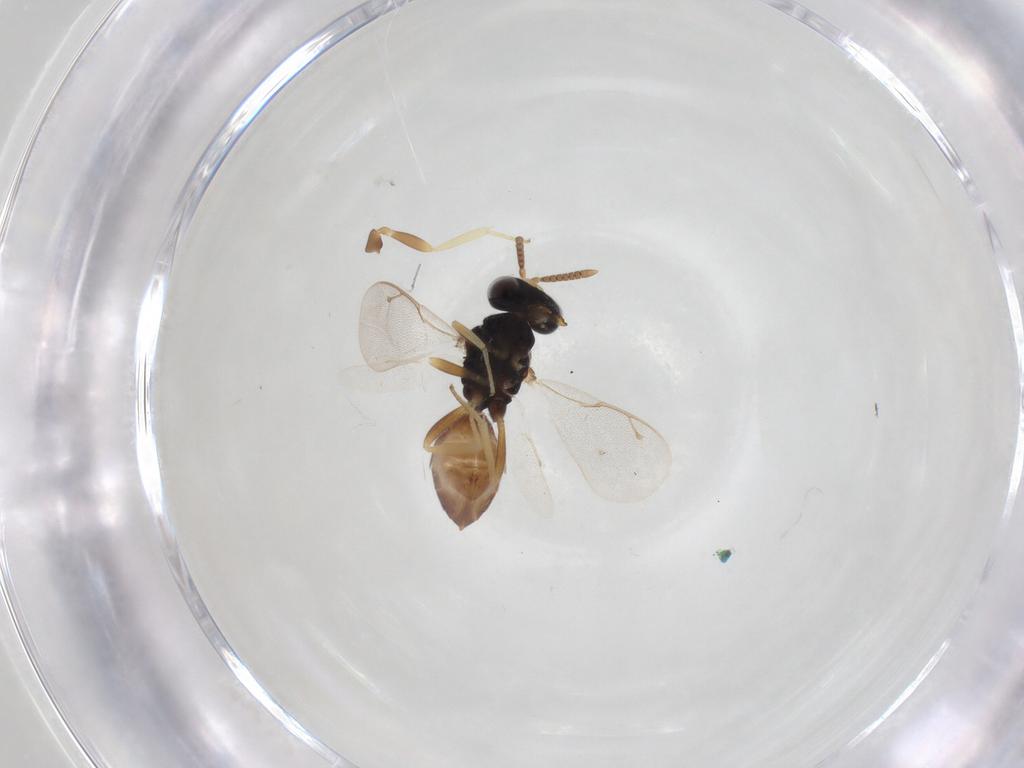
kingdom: Animalia
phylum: Arthropoda
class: Insecta
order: Hymenoptera
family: Pteromalidae
